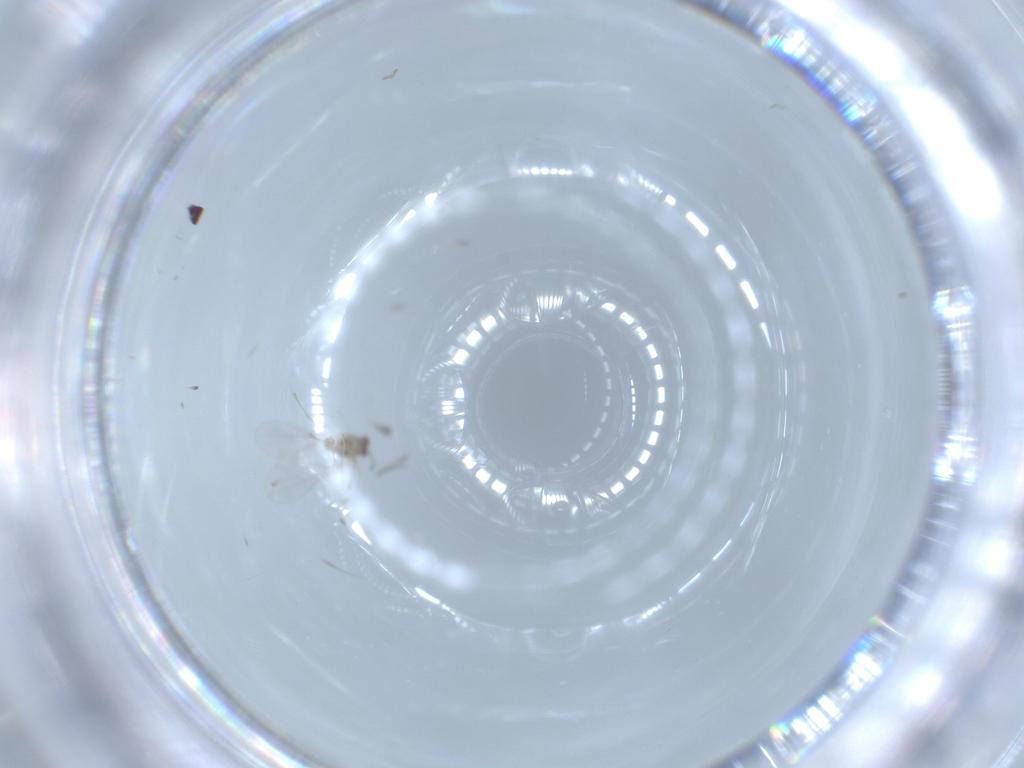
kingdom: Animalia
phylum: Arthropoda
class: Insecta
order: Diptera
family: Cecidomyiidae
